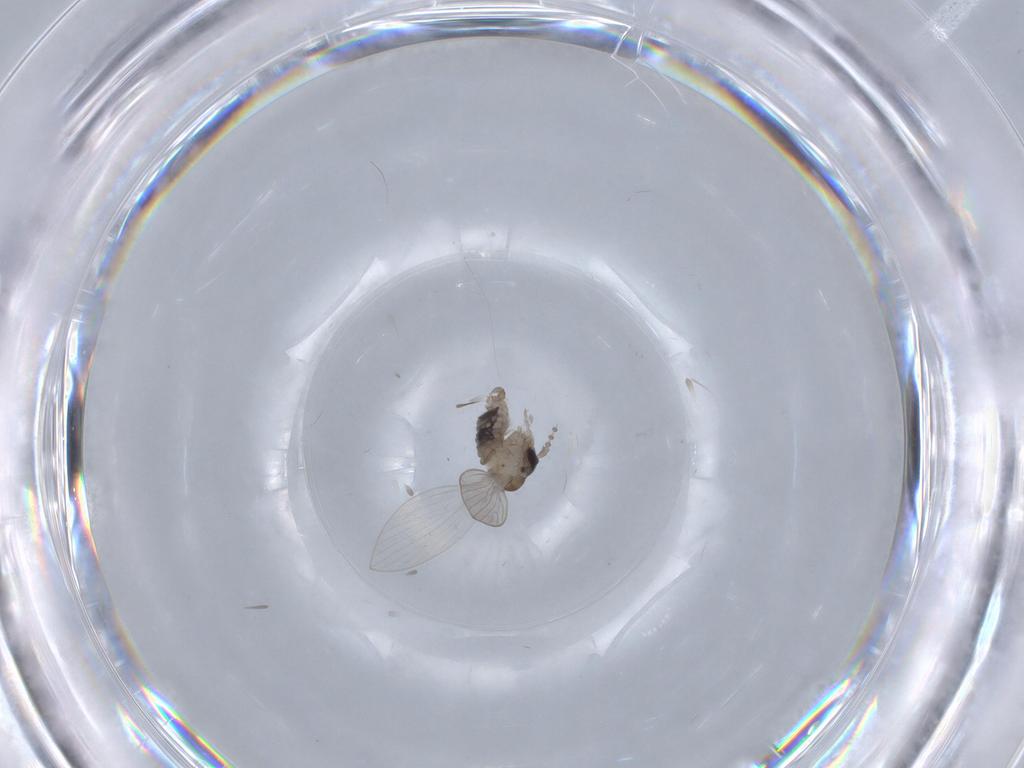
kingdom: Animalia
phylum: Arthropoda
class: Insecta
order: Diptera
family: Psychodidae
